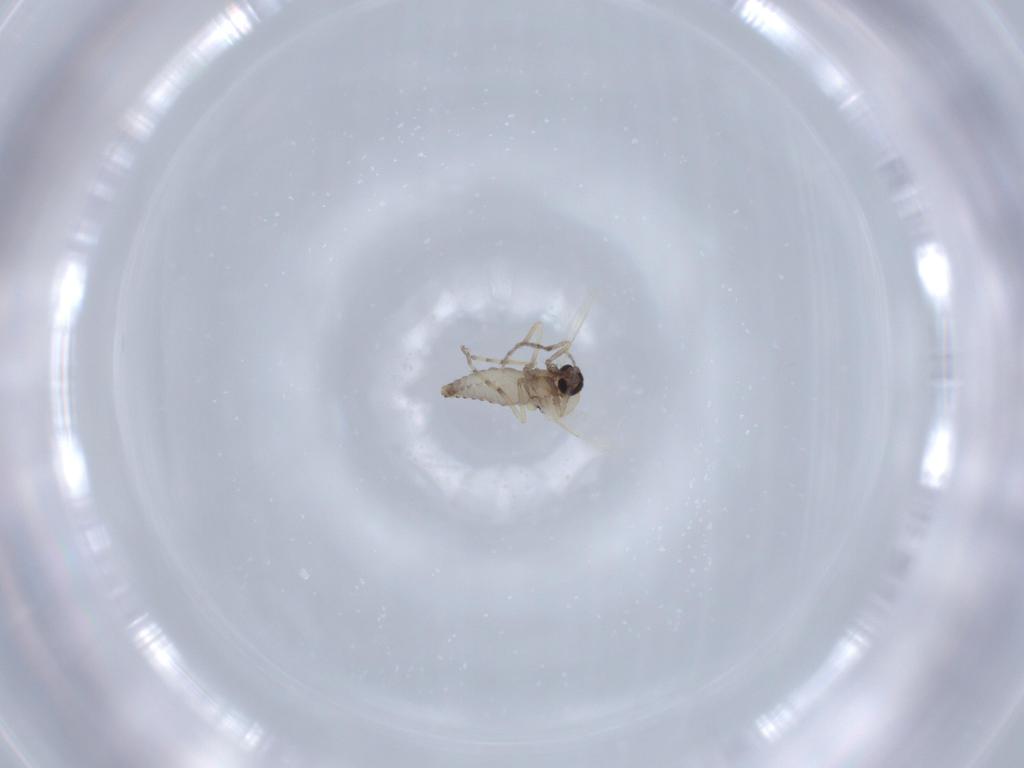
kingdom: Animalia
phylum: Arthropoda
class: Insecta
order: Diptera
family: Ceratopogonidae
